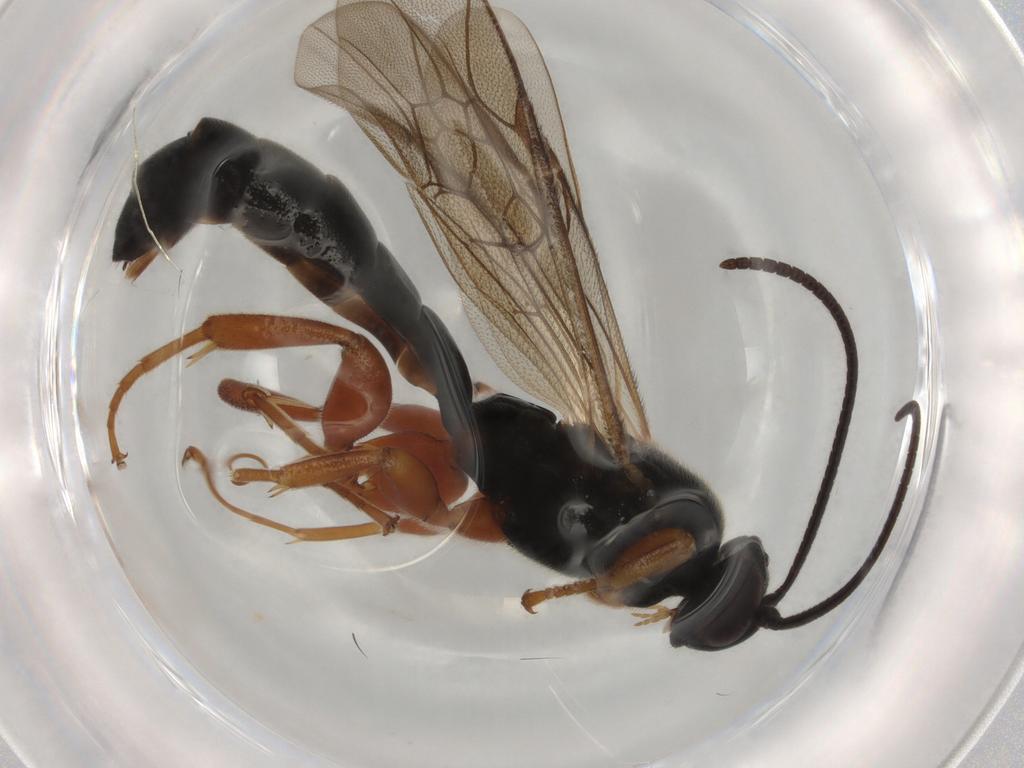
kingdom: Animalia
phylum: Arthropoda
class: Insecta
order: Hymenoptera
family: Ichneumonidae
